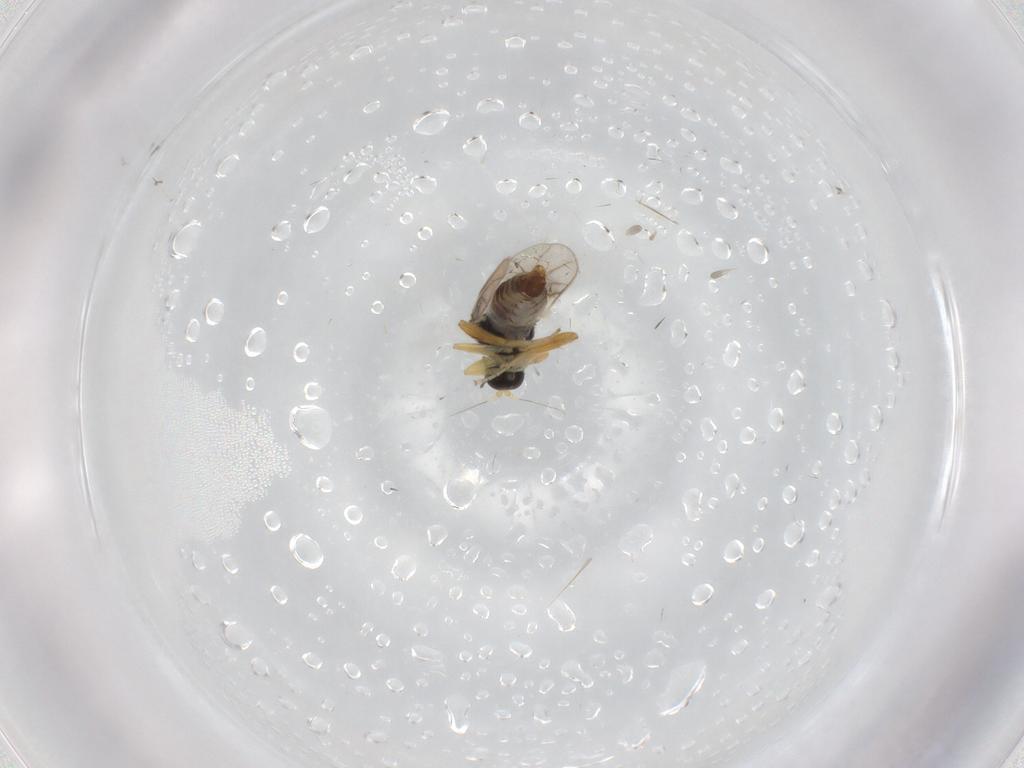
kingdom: Animalia
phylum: Arthropoda
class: Insecta
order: Diptera
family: Hybotidae
